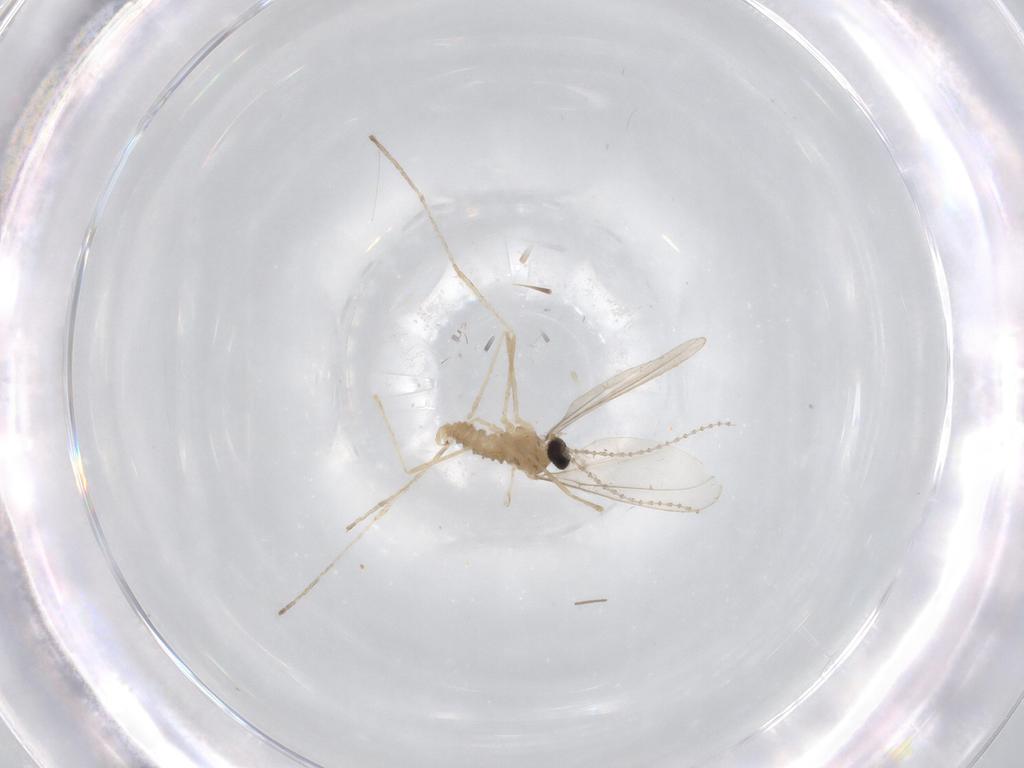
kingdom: Animalia
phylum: Arthropoda
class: Insecta
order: Diptera
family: Cecidomyiidae
